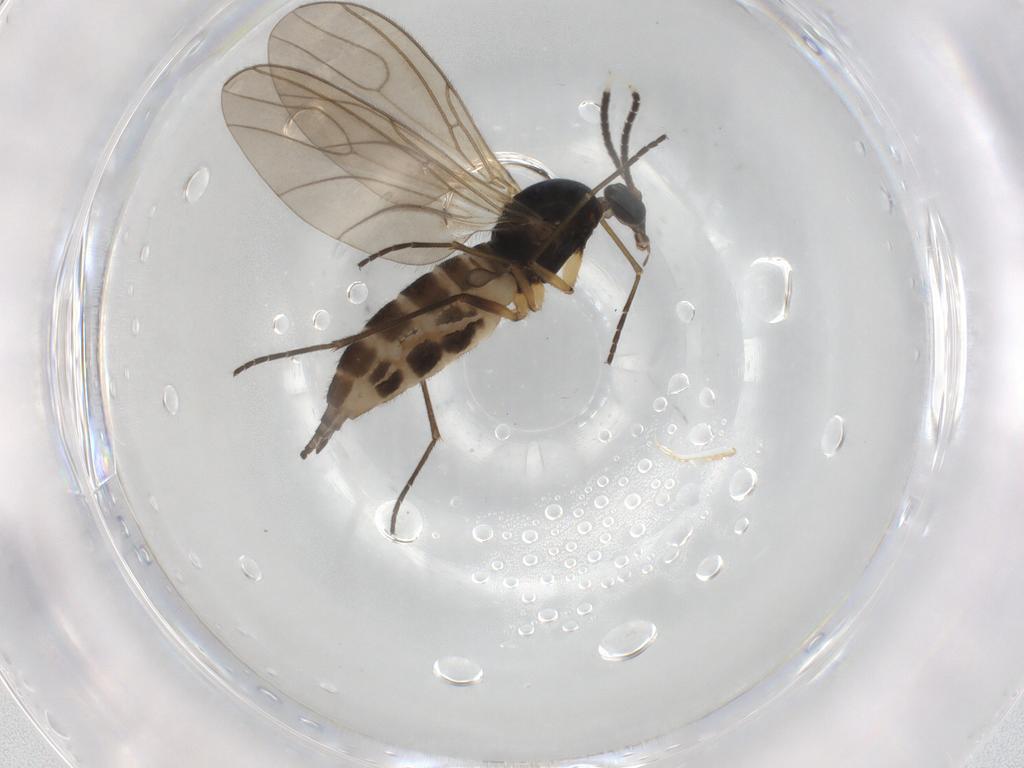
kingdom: Animalia
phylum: Arthropoda
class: Insecta
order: Diptera
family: Sciaridae
